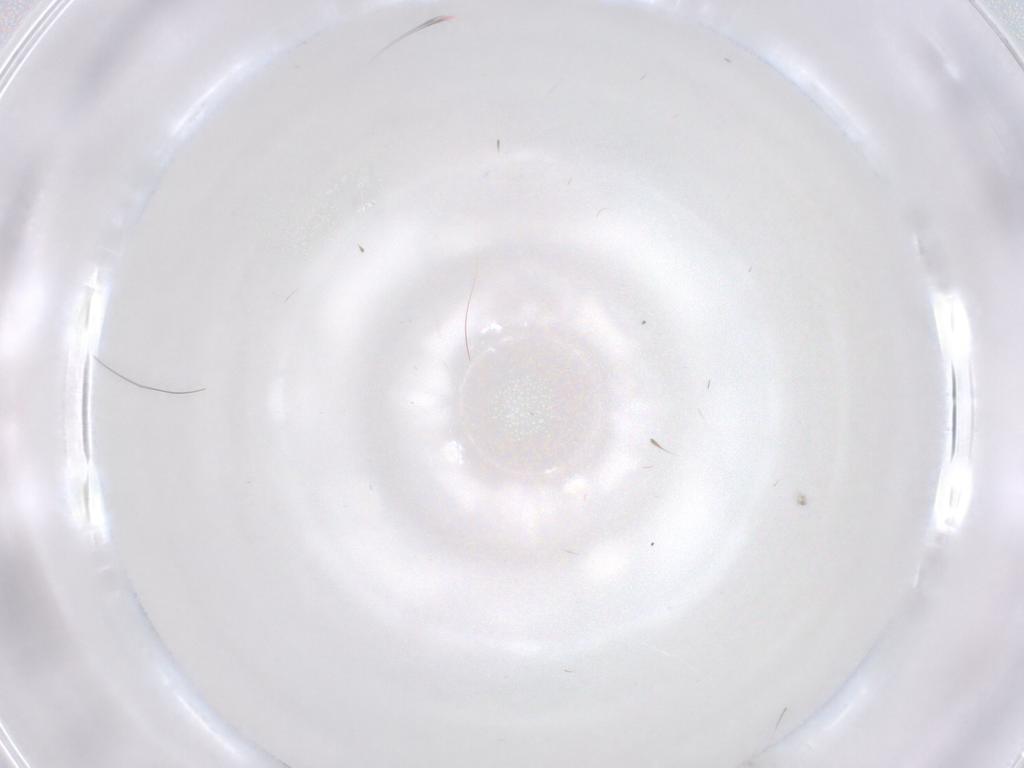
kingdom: Animalia
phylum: Arthropoda
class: Insecta
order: Diptera
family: Cecidomyiidae
